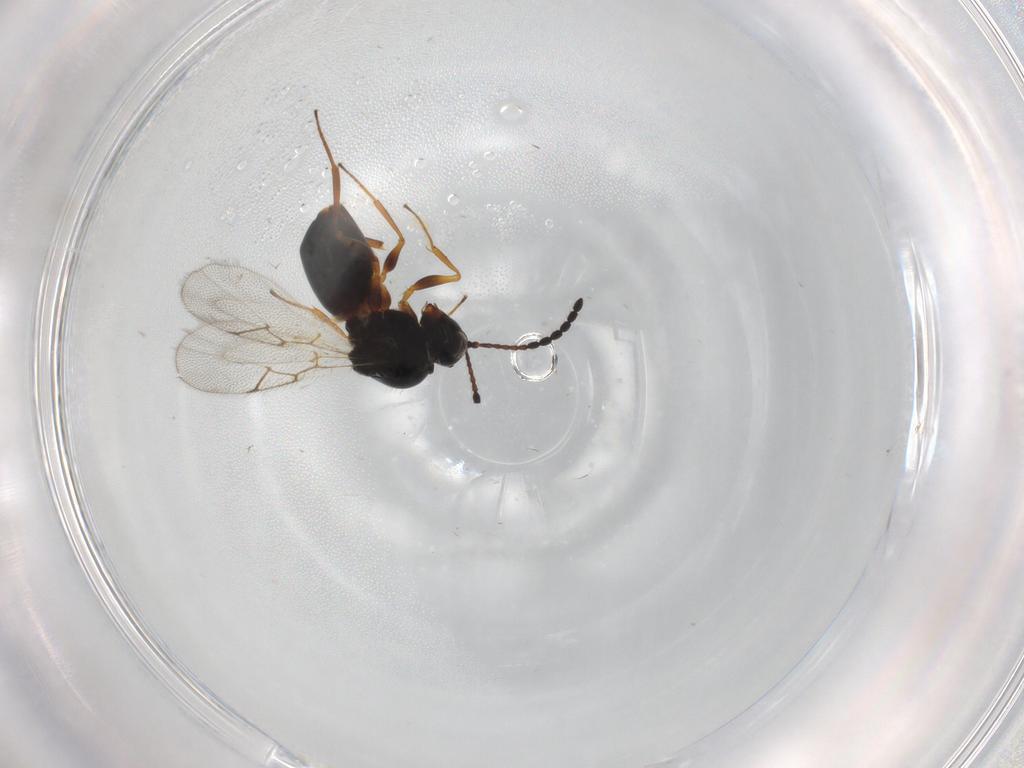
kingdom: Animalia
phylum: Arthropoda
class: Insecta
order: Hymenoptera
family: Figitidae
